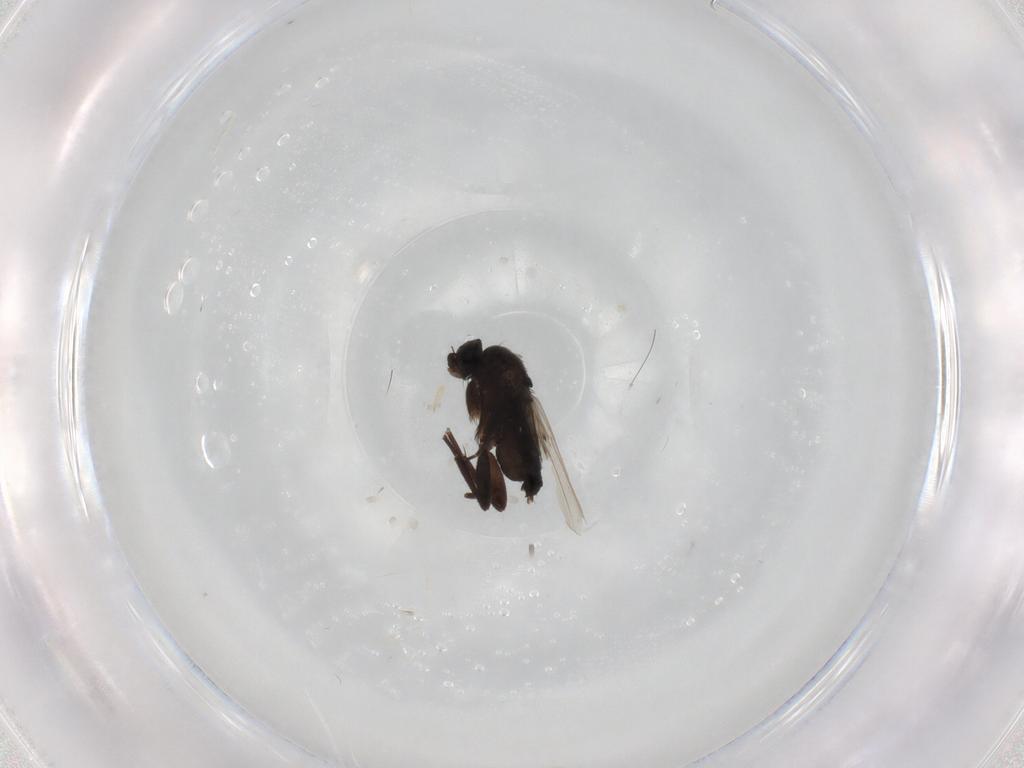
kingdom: Animalia
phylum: Arthropoda
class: Insecta
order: Diptera
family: Phoridae
